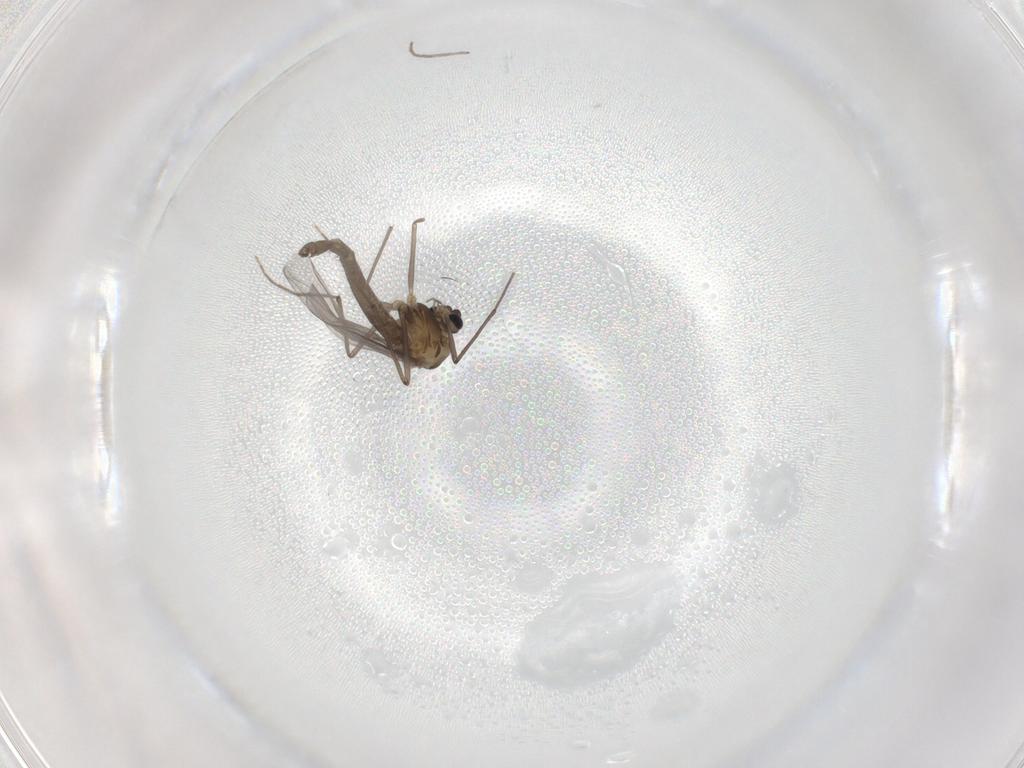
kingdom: Animalia
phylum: Arthropoda
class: Insecta
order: Diptera
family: Chironomidae
